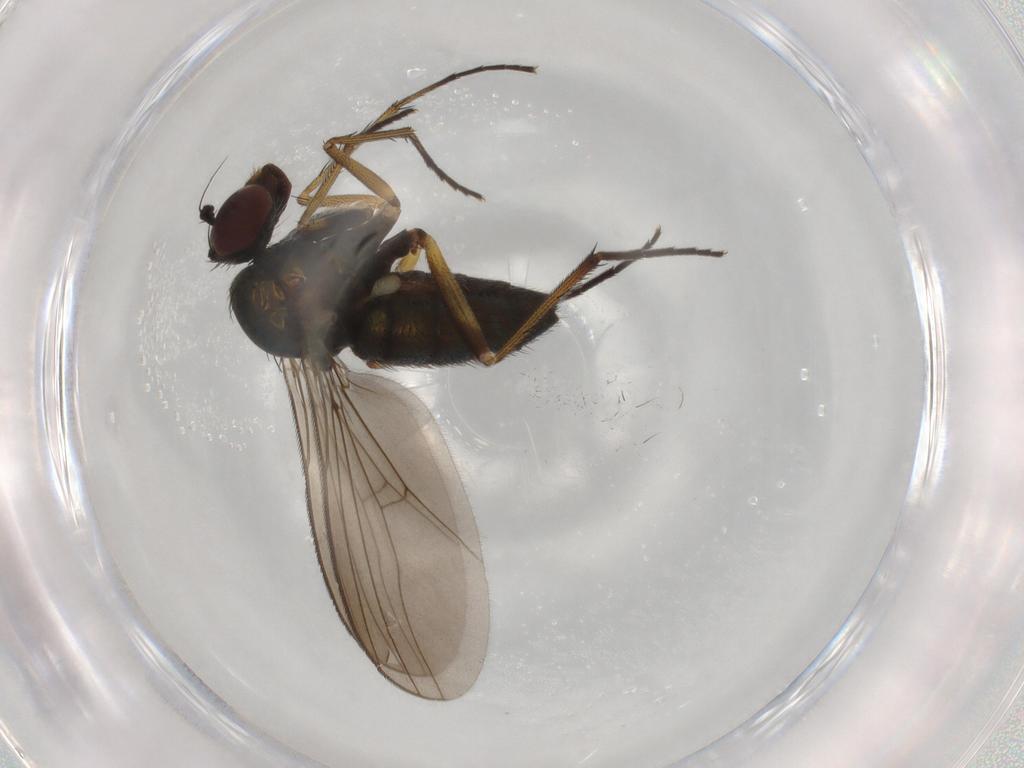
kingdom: Animalia
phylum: Arthropoda
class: Insecta
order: Diptera
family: Dolichopodidae
